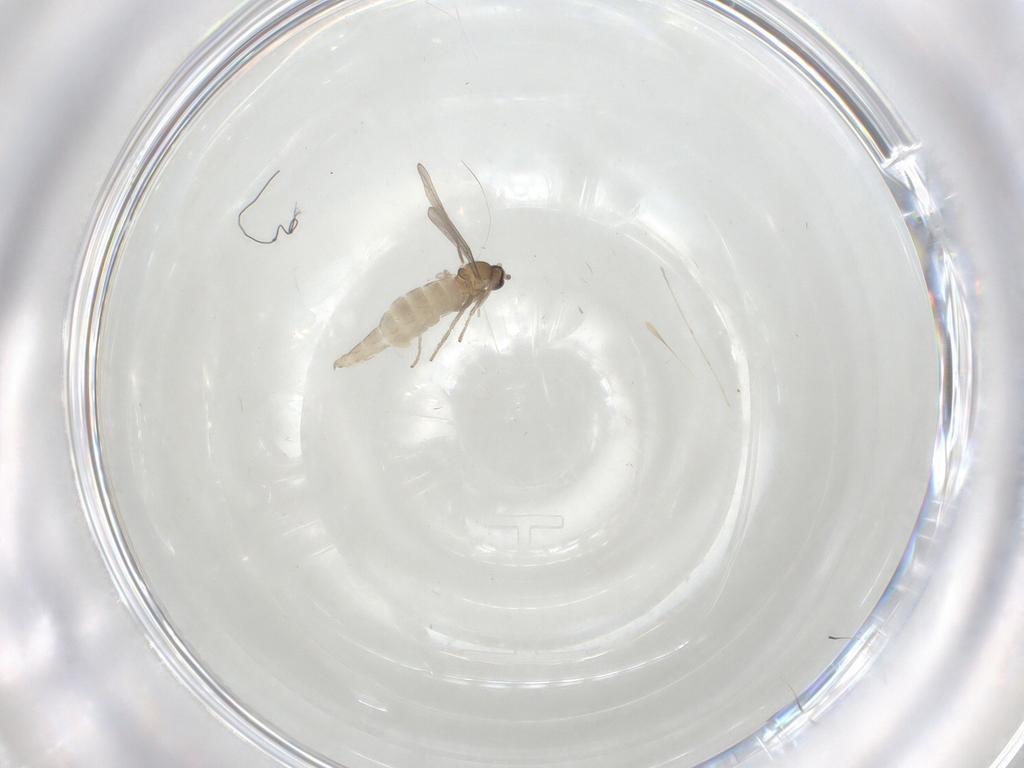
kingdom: Animalia
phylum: Arthropoda
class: Insecta
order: Diptera
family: Cecidomyiidae
